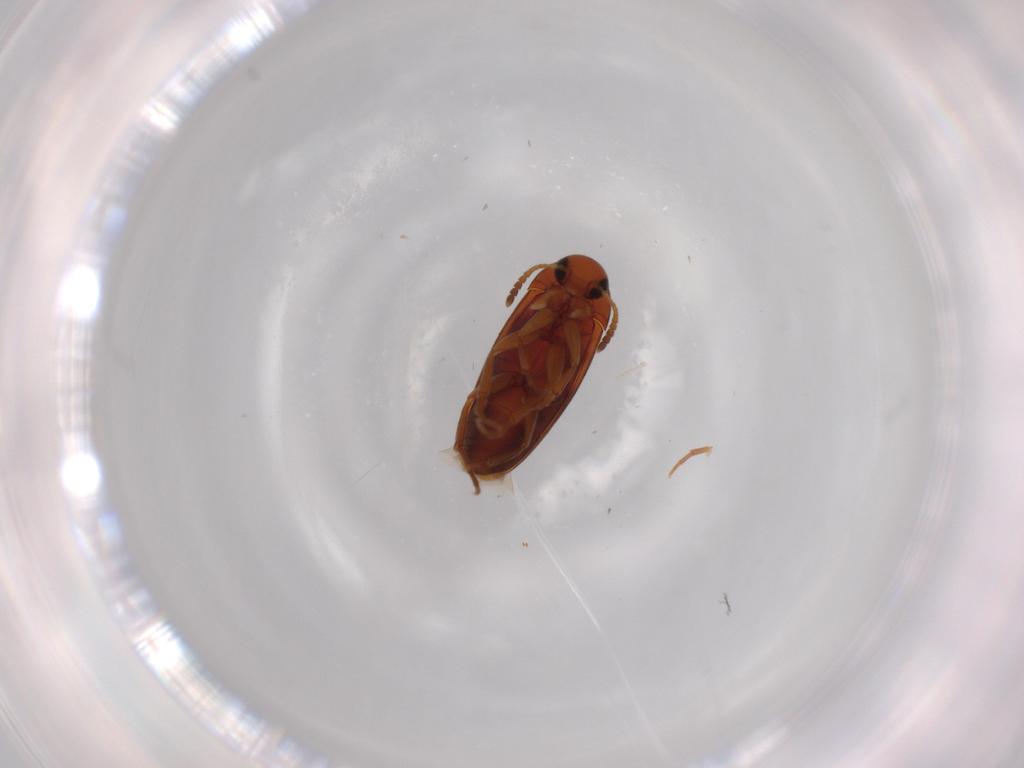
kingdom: Animalia
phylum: Arthropoda
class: Insecta
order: Coleoptera
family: Scraptiidae
